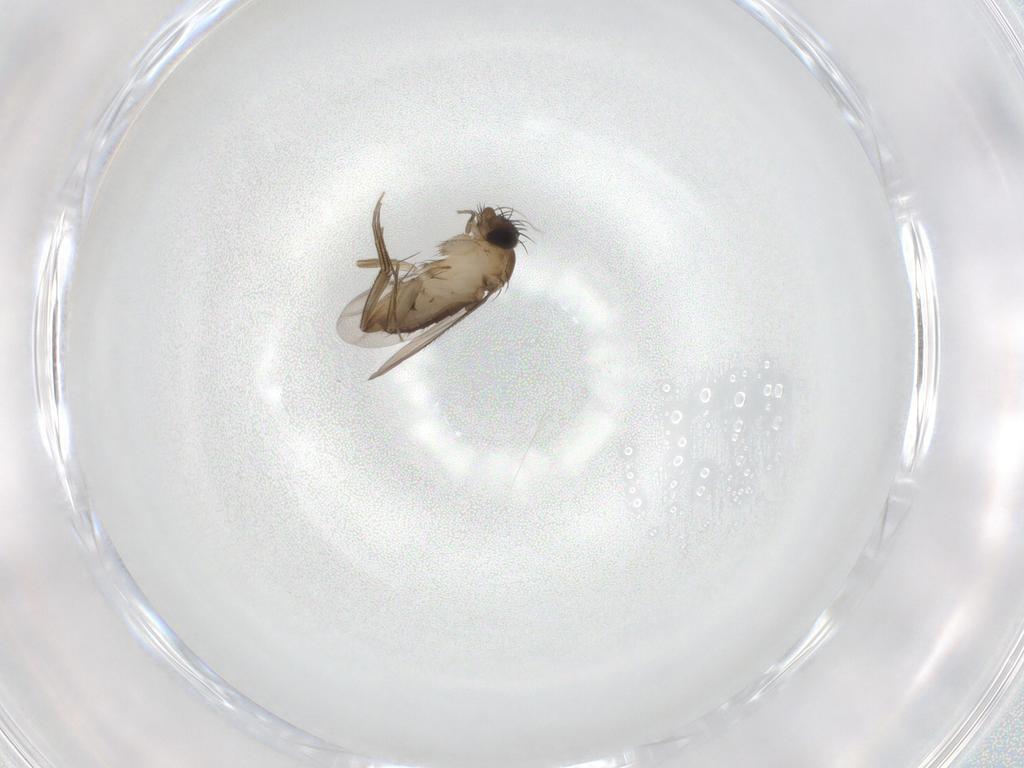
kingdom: Animalia
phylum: Arthropoda
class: Insecta
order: Diptera
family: Phoridae
